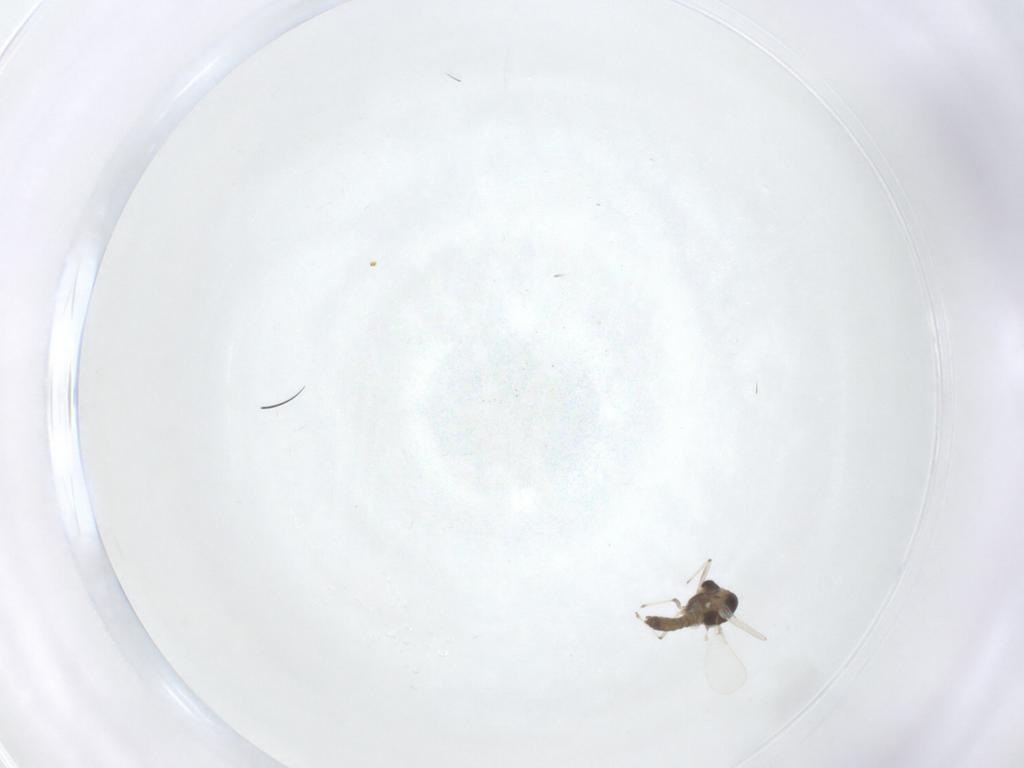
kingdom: Animalia
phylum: Arthropoda
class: Insecta
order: Diptera
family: Chironomidae
